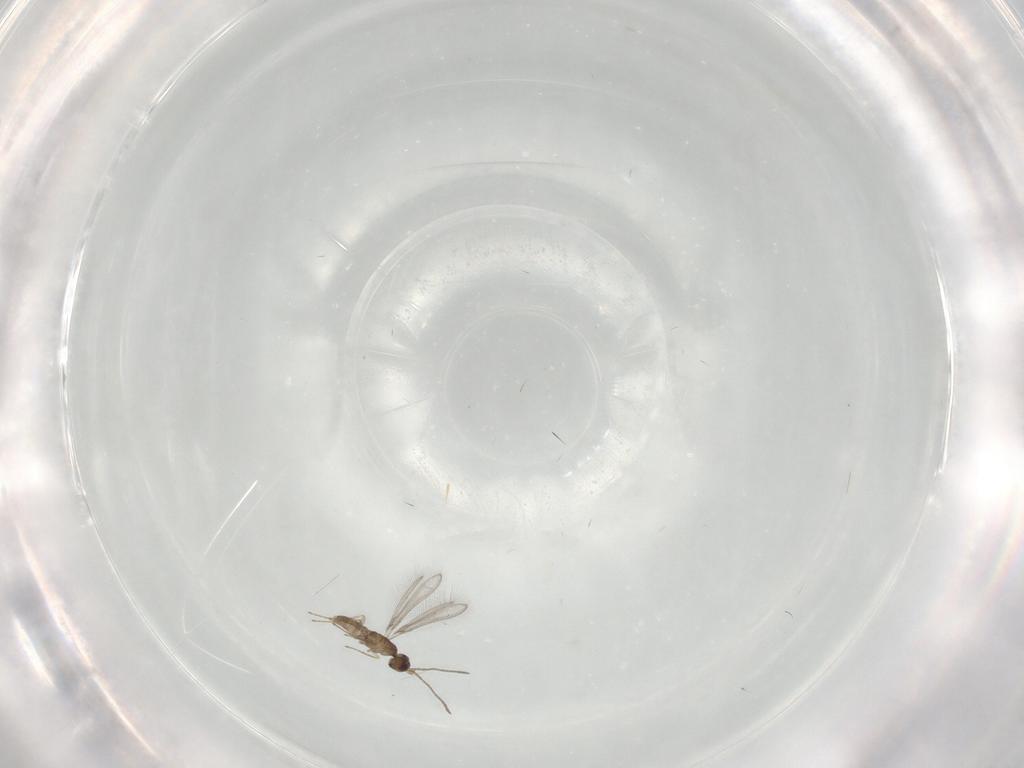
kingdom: Animalia
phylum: Arthropoda
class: Insecta
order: Hymenoptera
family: Mymaridae
